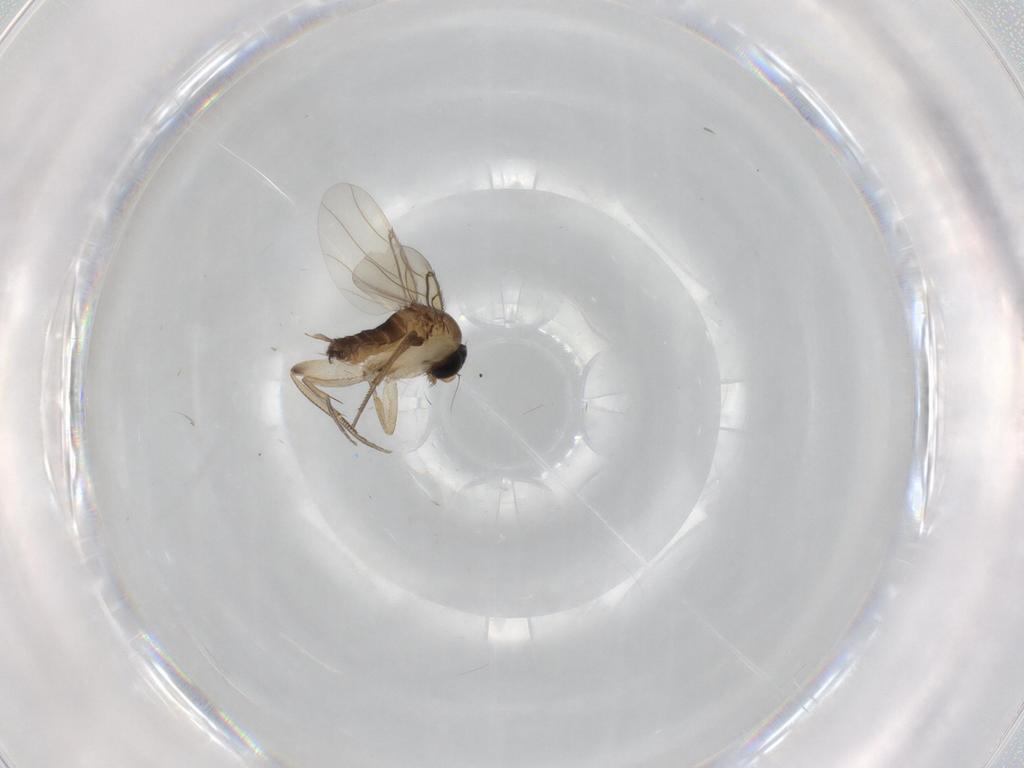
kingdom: Animalia
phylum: Arthropoda
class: Insecta
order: Diptera
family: Phoridae
